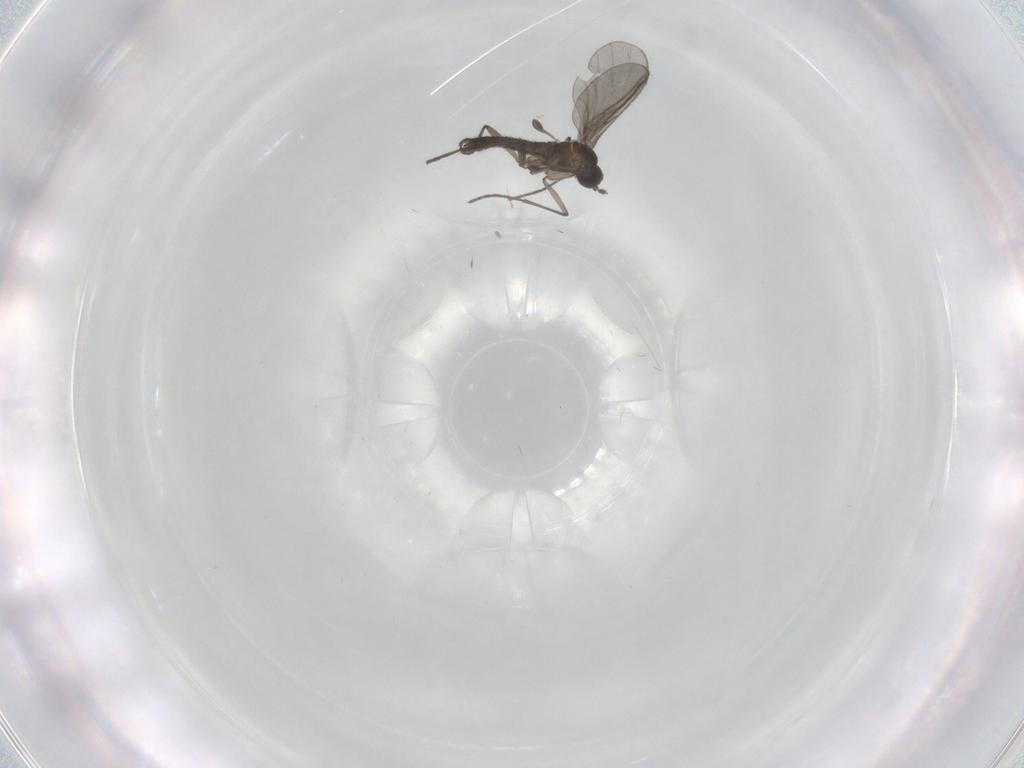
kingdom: Animalia
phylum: Arthropoda
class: Insecta
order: Diptera
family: Sciaridae
